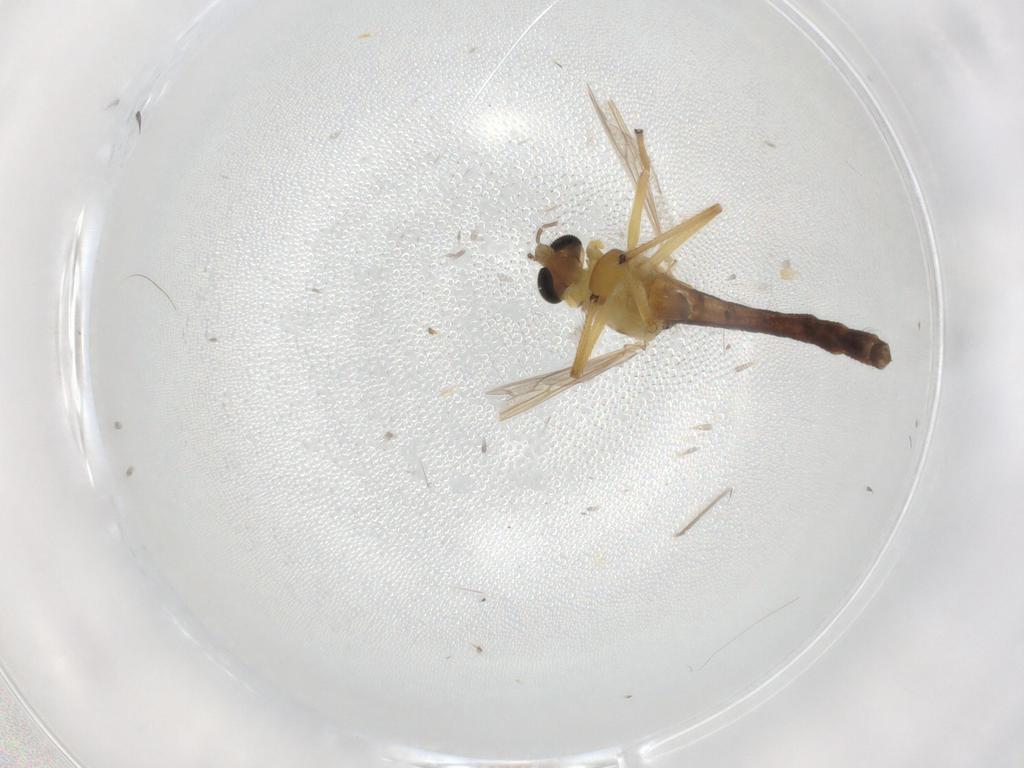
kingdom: Animalia
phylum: Arthropoda
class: Insecta
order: Diptera
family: Chironomidae
